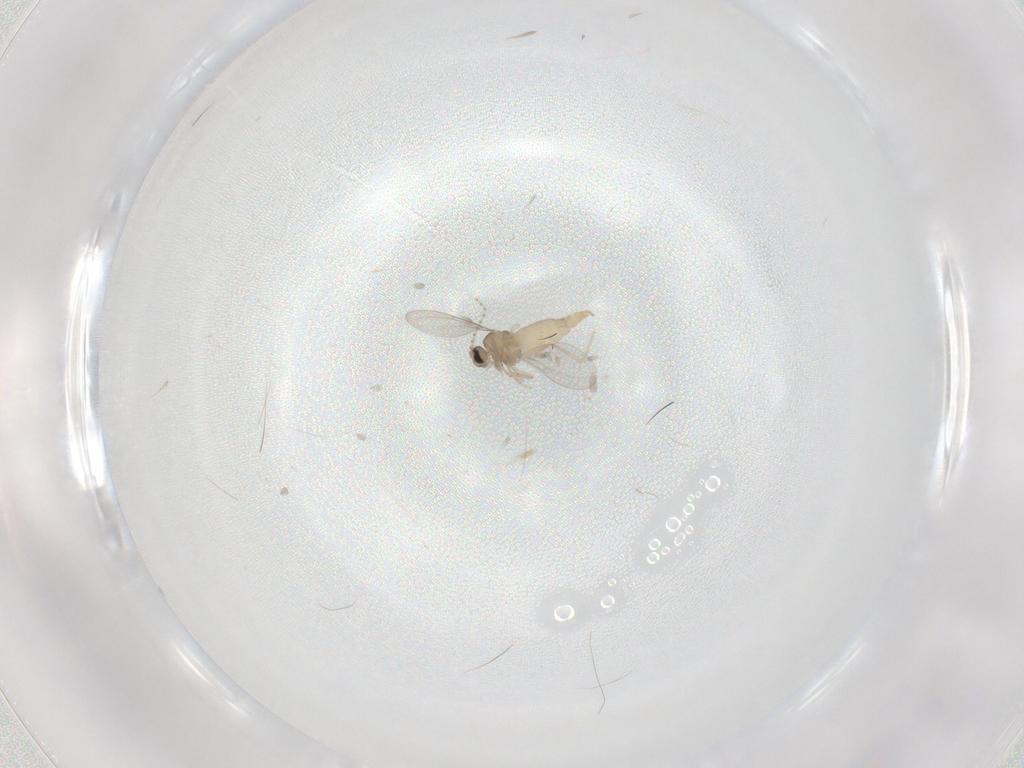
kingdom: Animalia
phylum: Arthropoda
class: Insecta
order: Diptera
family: Cecidomyiidae
